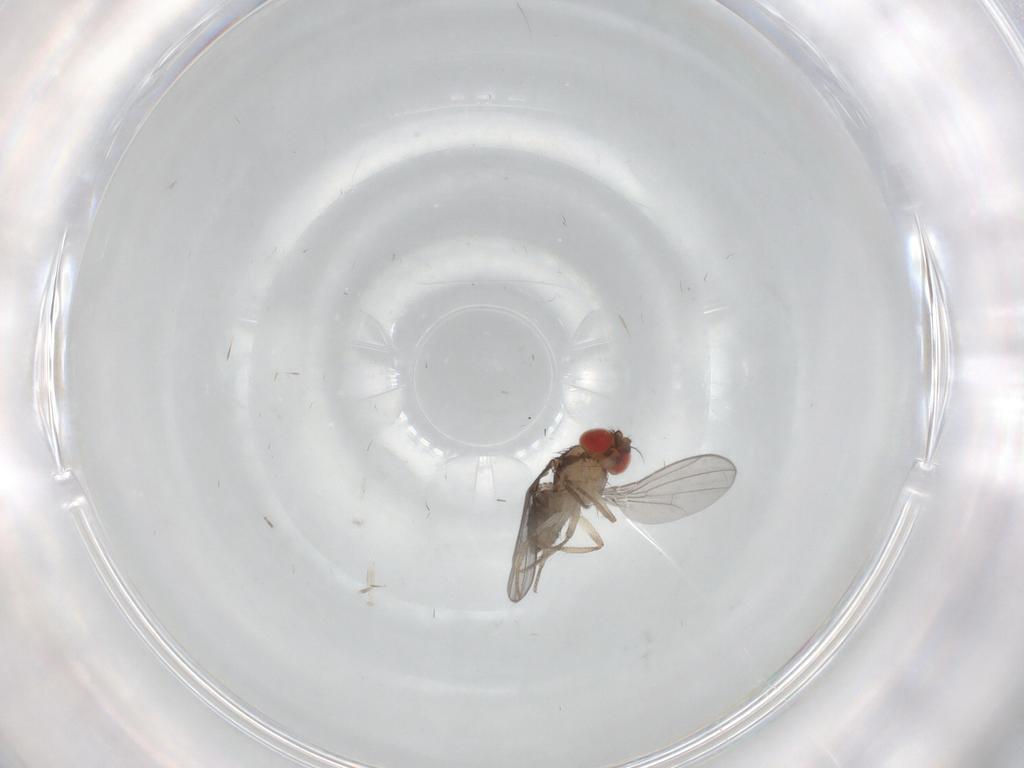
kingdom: Animalia
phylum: Arthropoda
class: Insecta
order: Diptera
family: Drosophilidae
